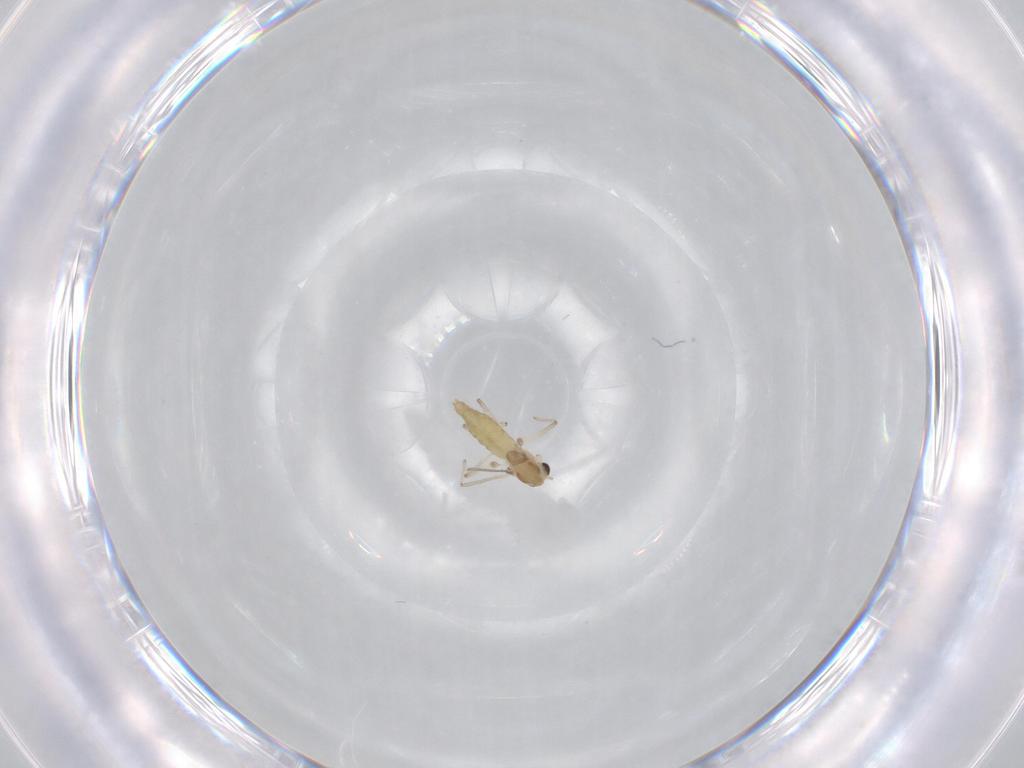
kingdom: Animalia
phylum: Arthropoda
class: Insecta
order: Diptera
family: Chironomidae
